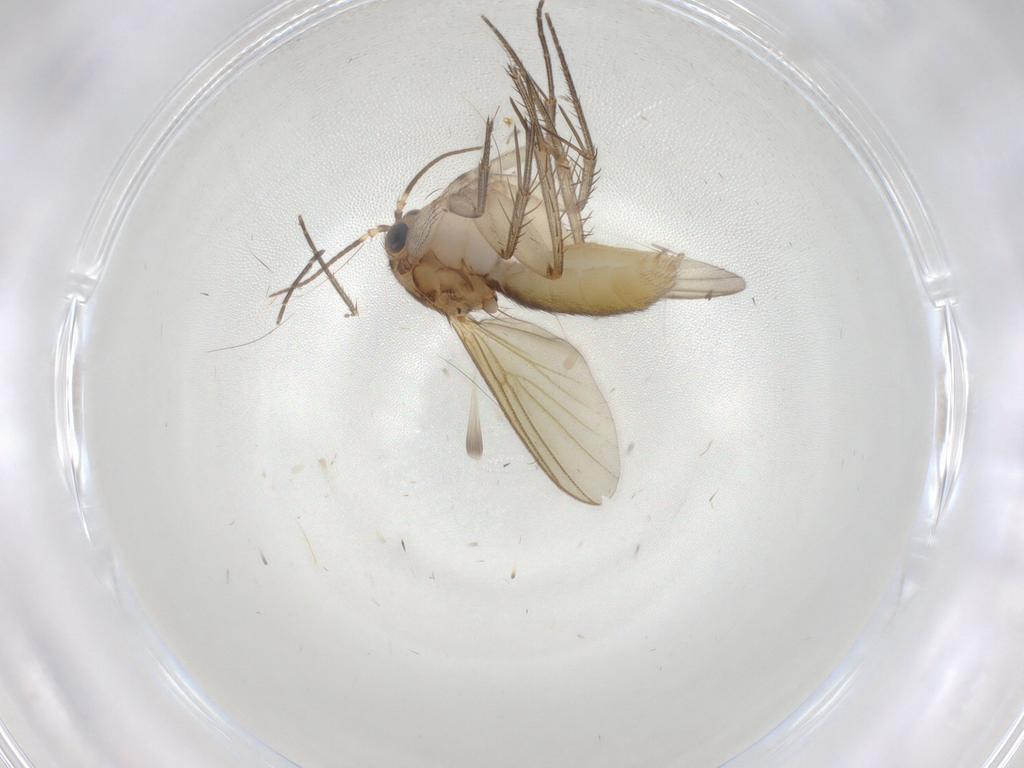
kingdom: Animalia
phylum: Arthropoda
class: Insecta
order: Diptera
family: Mycetophilidae
